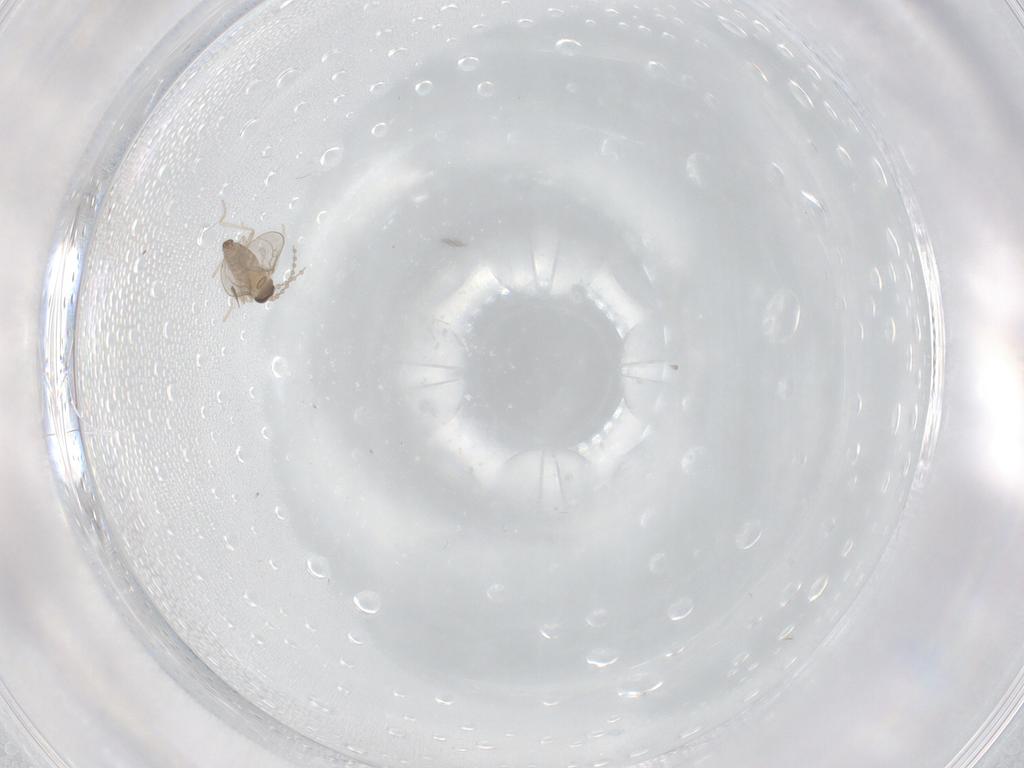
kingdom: Animalia
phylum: Arthropoda
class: Insecta
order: Diptera
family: Cecidomyiidae
